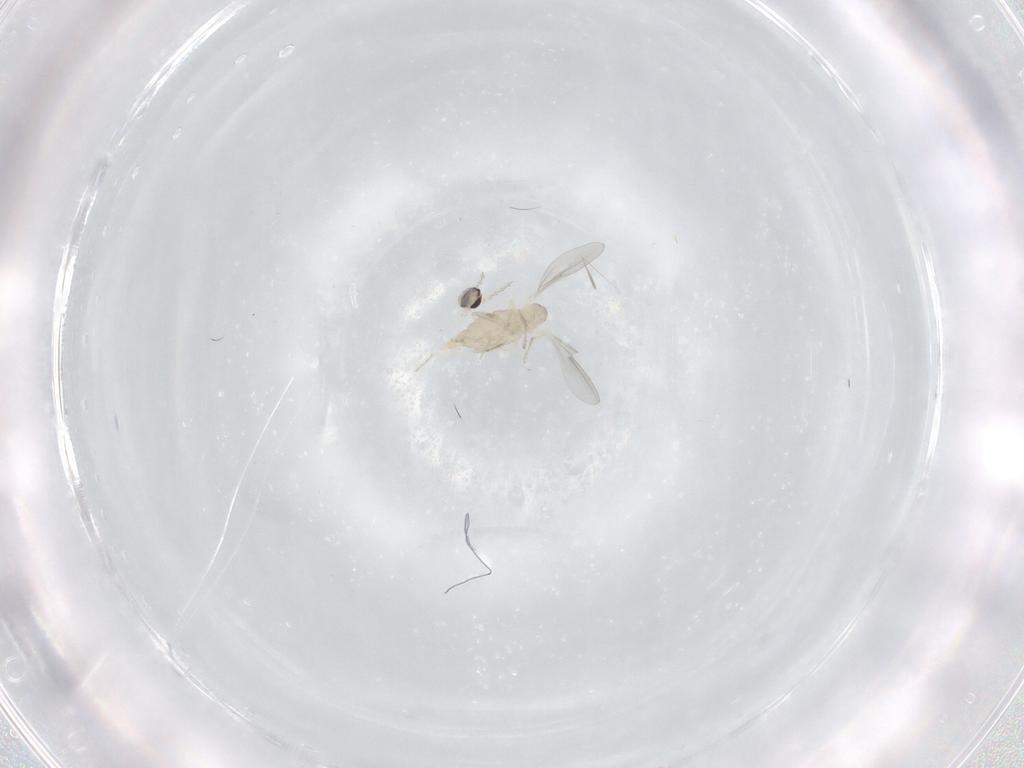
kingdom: Animalia
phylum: Arthropoda
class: Insecta
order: Diptera
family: Cecidomyiidae
